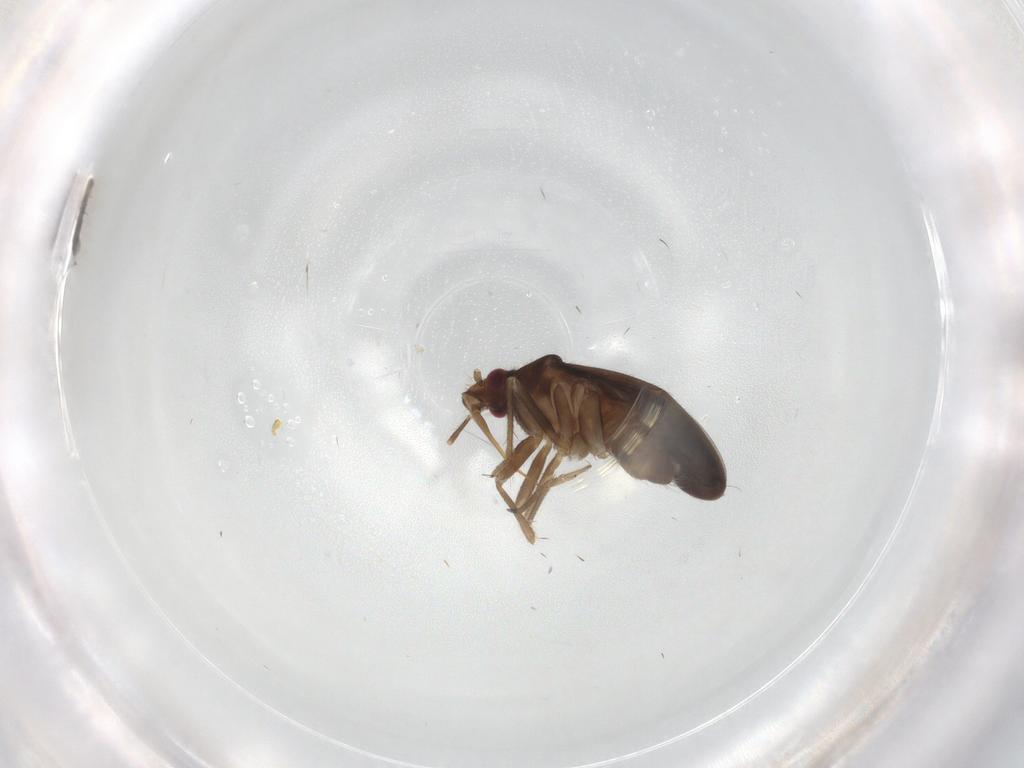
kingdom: Animalia
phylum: Arthropoda
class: Insecta
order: Hemiptera
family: Ceratocombidae
